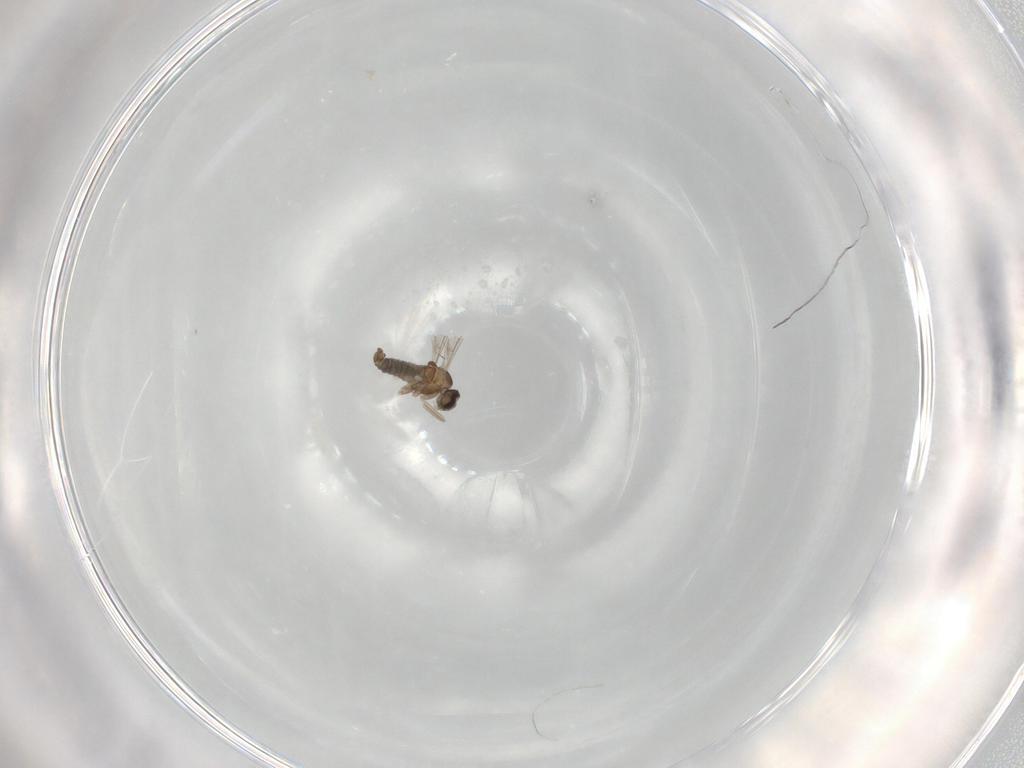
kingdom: Animalia
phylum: Arthropoda
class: Insecta
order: Diptera
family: Cecidomyiidae
